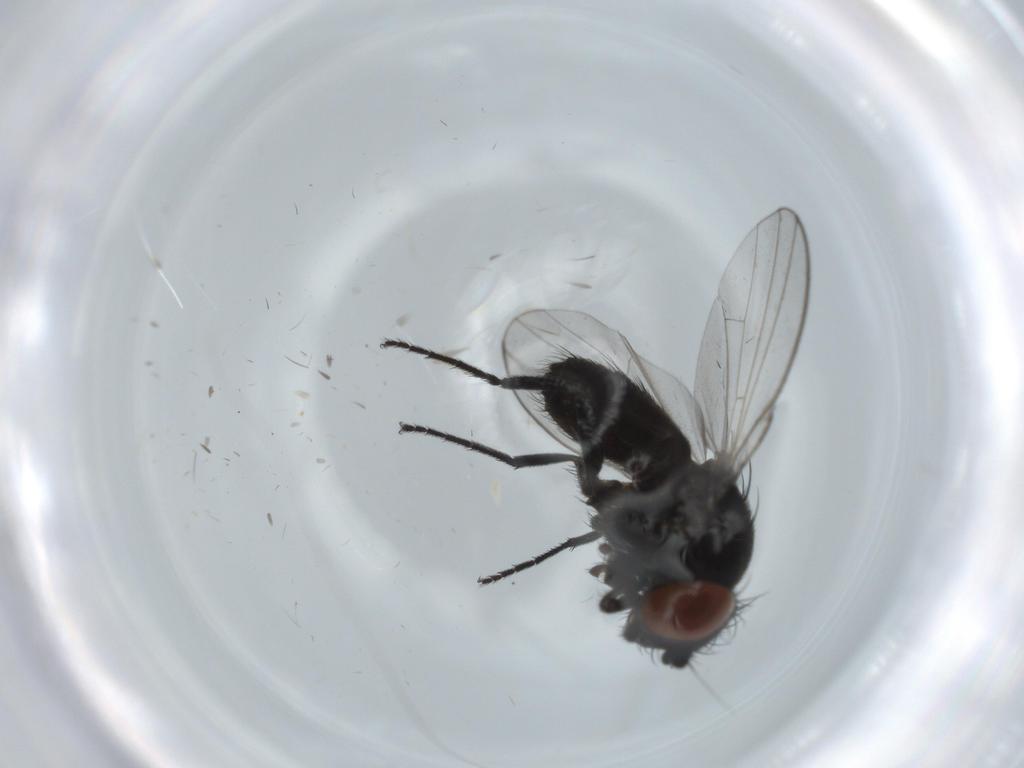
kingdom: Animalia
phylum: Arthropoda
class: Insecta
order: Diptera
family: Milichiidae
